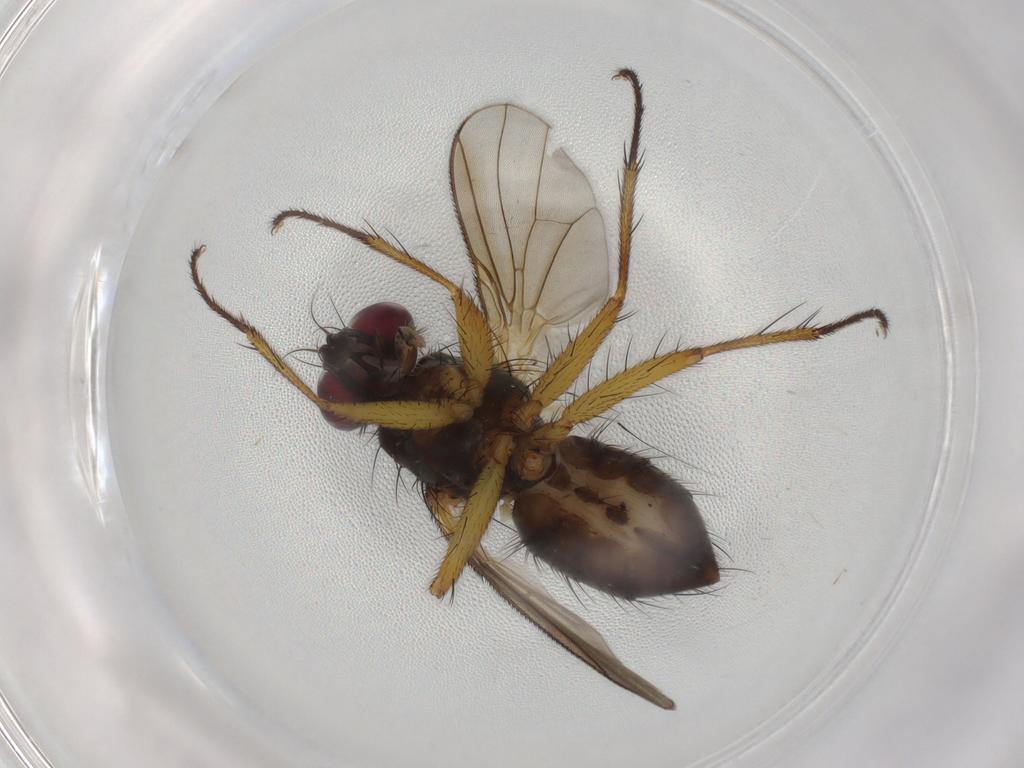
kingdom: Animalia
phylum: Arthropoda
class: Insecta
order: Diptera
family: Muscidae
